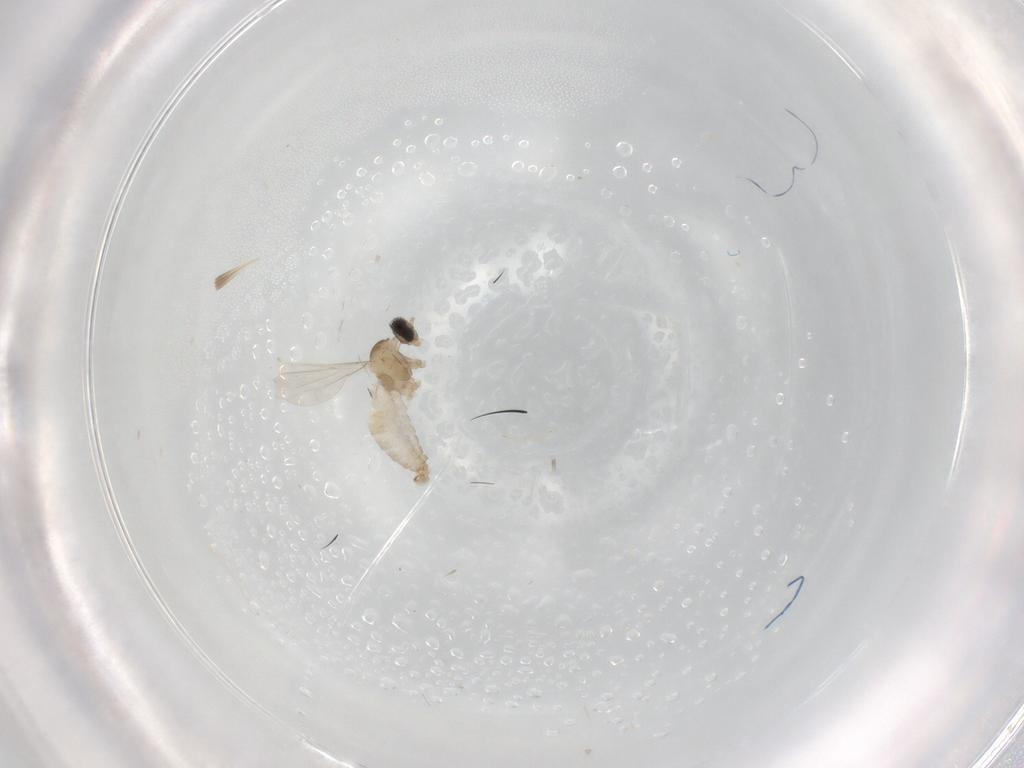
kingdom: Animalia
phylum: Arthropoda
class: Insecta
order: Diptera
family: Cecidomyiidae
